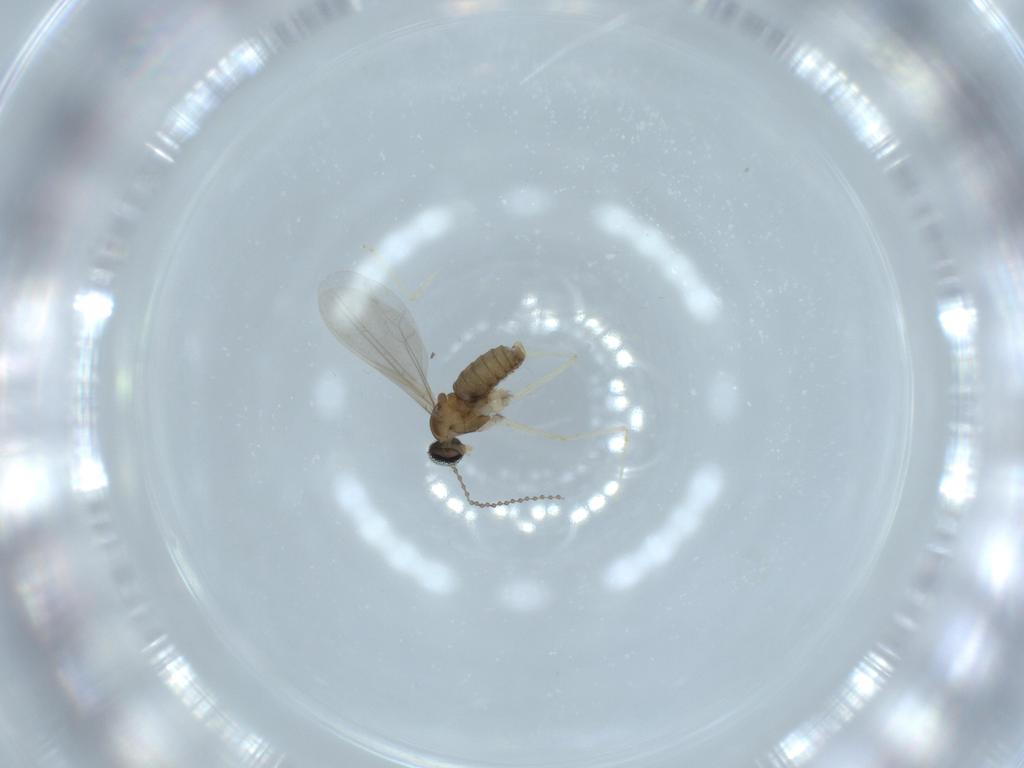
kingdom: Animalia
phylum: Arthropoda
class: Insecta
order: Diptera
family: Cecidomyiidae
